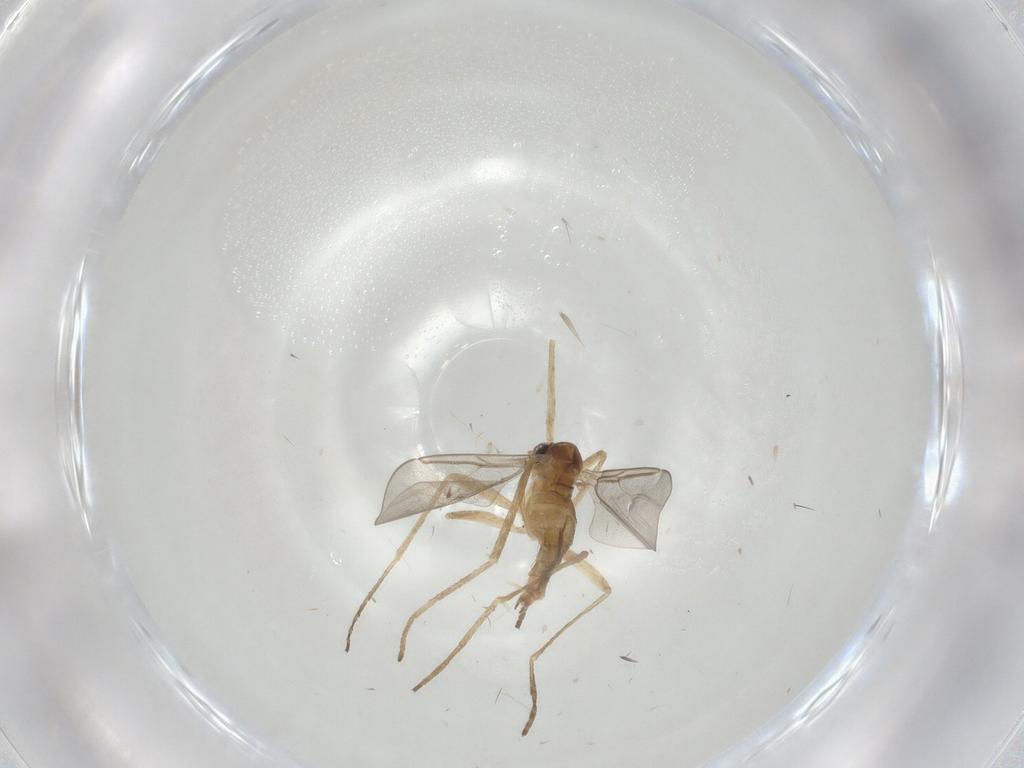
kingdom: Animalia
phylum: Arthropoda
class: Insecta
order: Diptera
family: Cecidomyiidae
